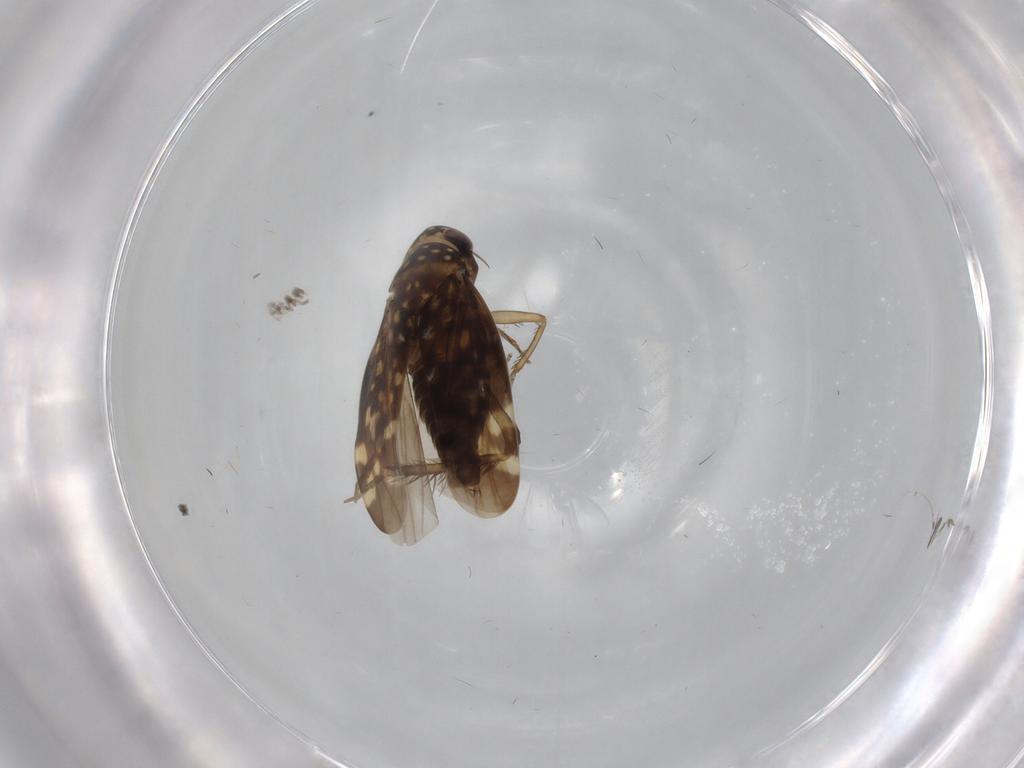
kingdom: Animalia
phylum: Arthropoda
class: Insecta
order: Hemiptera
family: Cicadellidae
